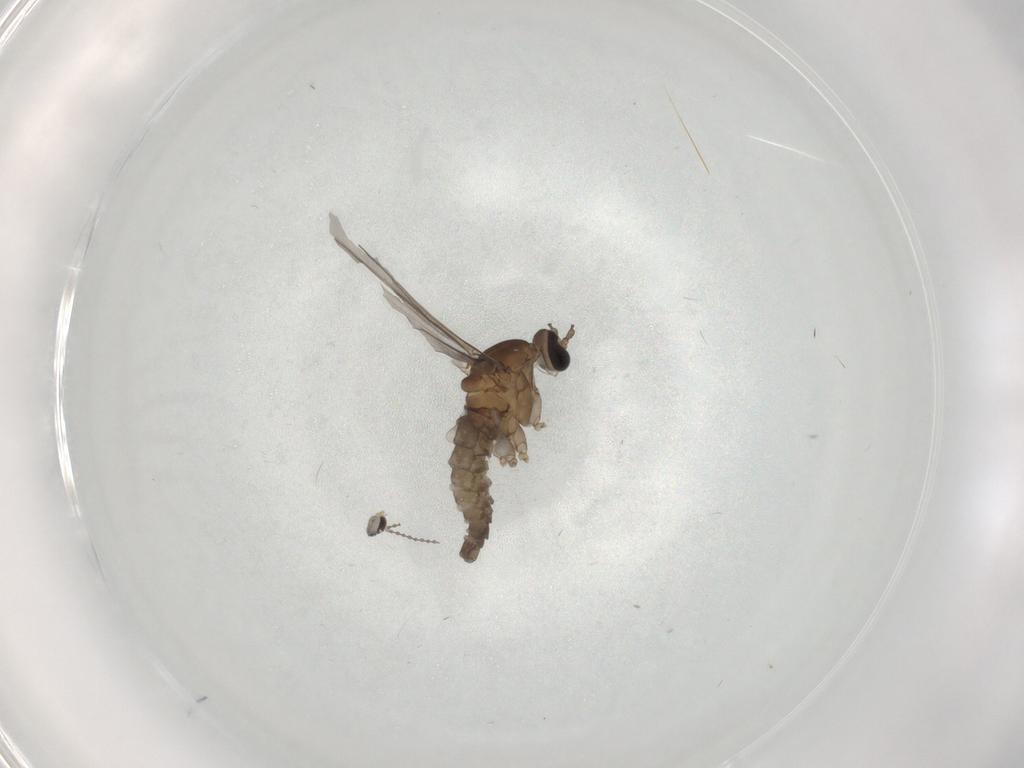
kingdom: Animalia
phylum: Arthropoda
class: Insecta
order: Diptera
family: Cecidomyiidae
